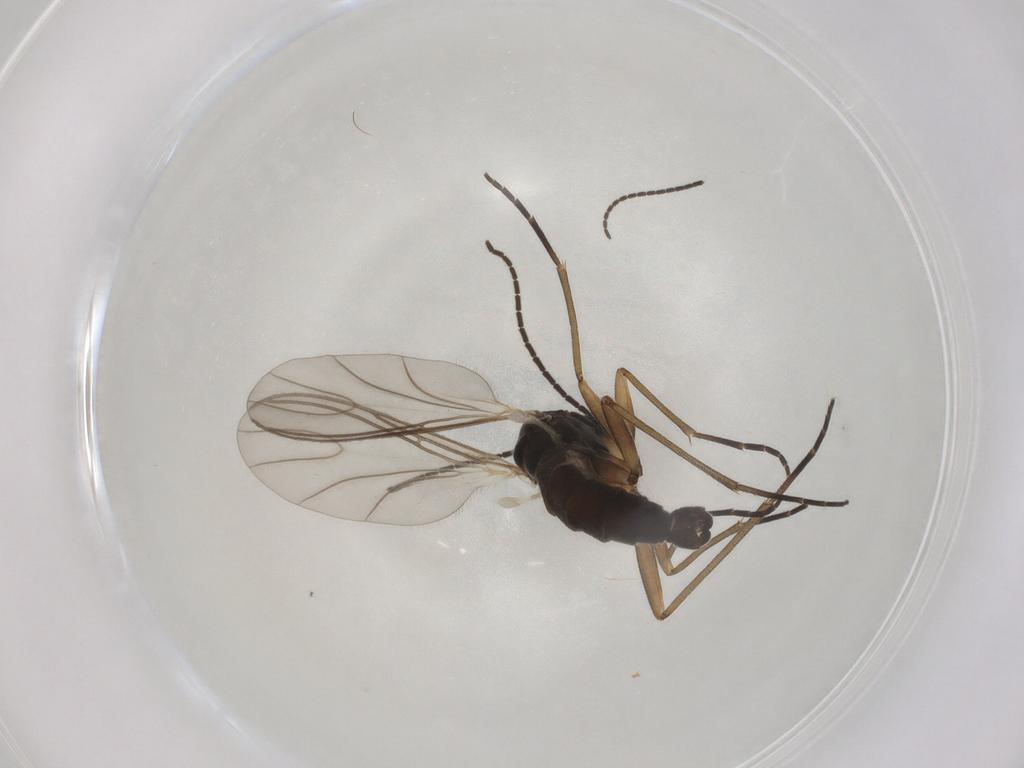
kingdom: Animalia
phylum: Arthropoda
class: Insecta
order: Diptera
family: Sciaridae
